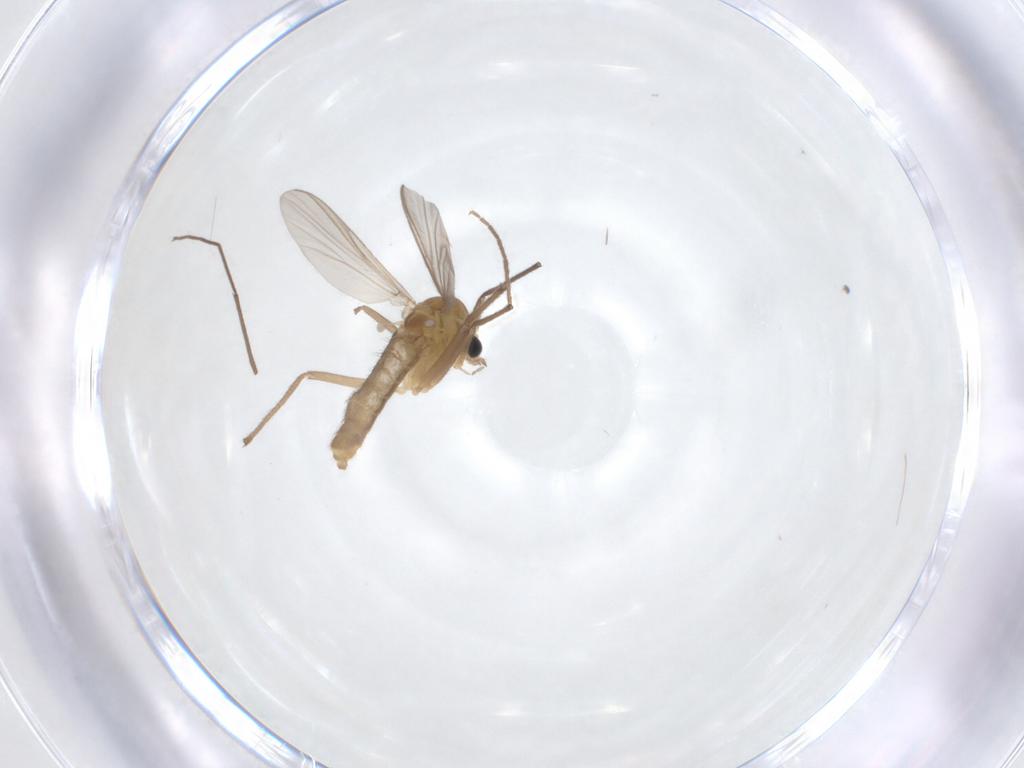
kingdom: Animalia
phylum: Arthropoda
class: Insecta
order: Diptera
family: Chironomidae
